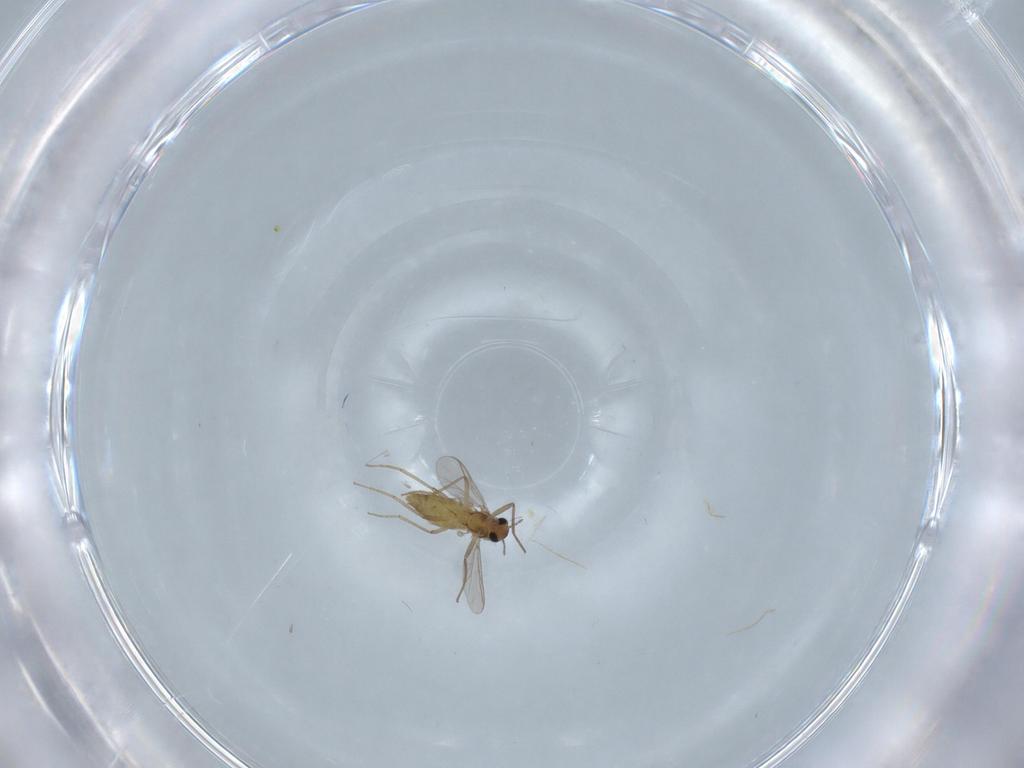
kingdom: Animalia
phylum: Arthropoda
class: Insecta
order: Diptera
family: Chironomidae
